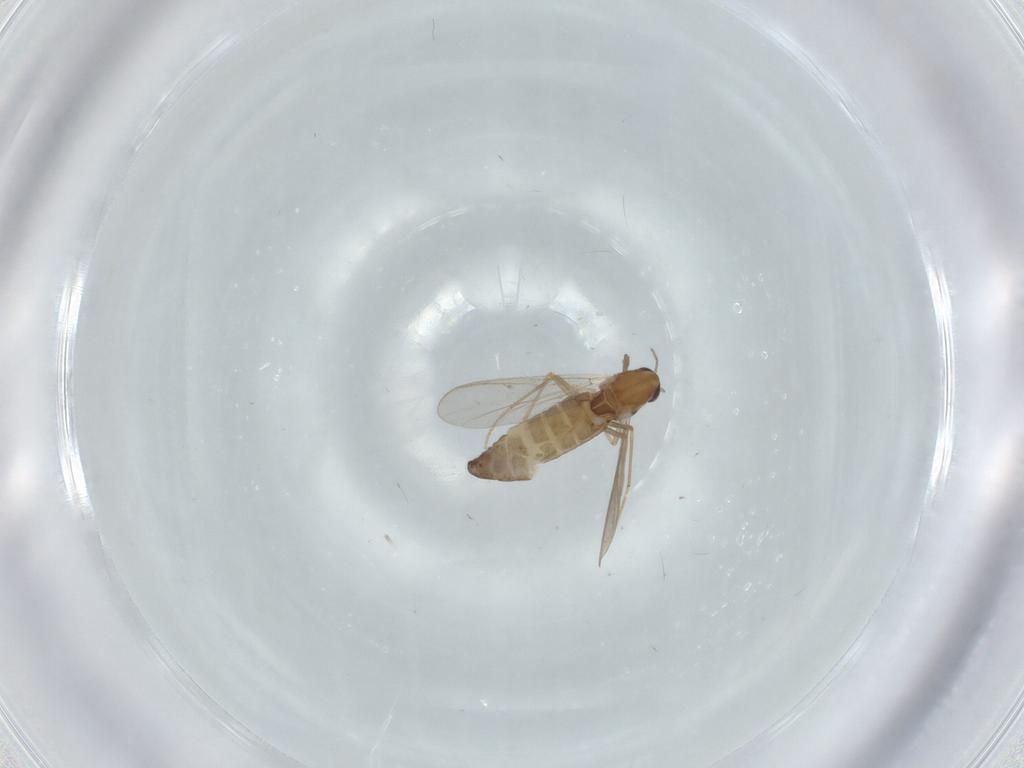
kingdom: Animalia
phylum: Arthropoda
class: Insecta
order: Diptera
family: Chironomidae
